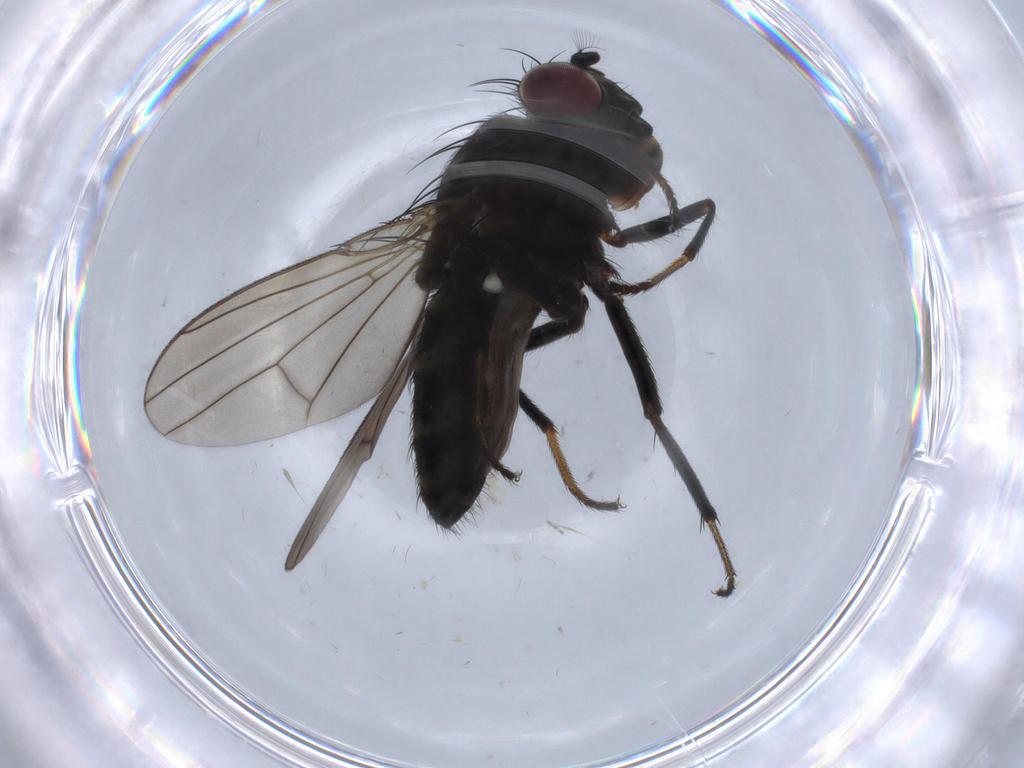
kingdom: Animalia
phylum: Arthropoda
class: Insecta
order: Diptera
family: Ephydridae
